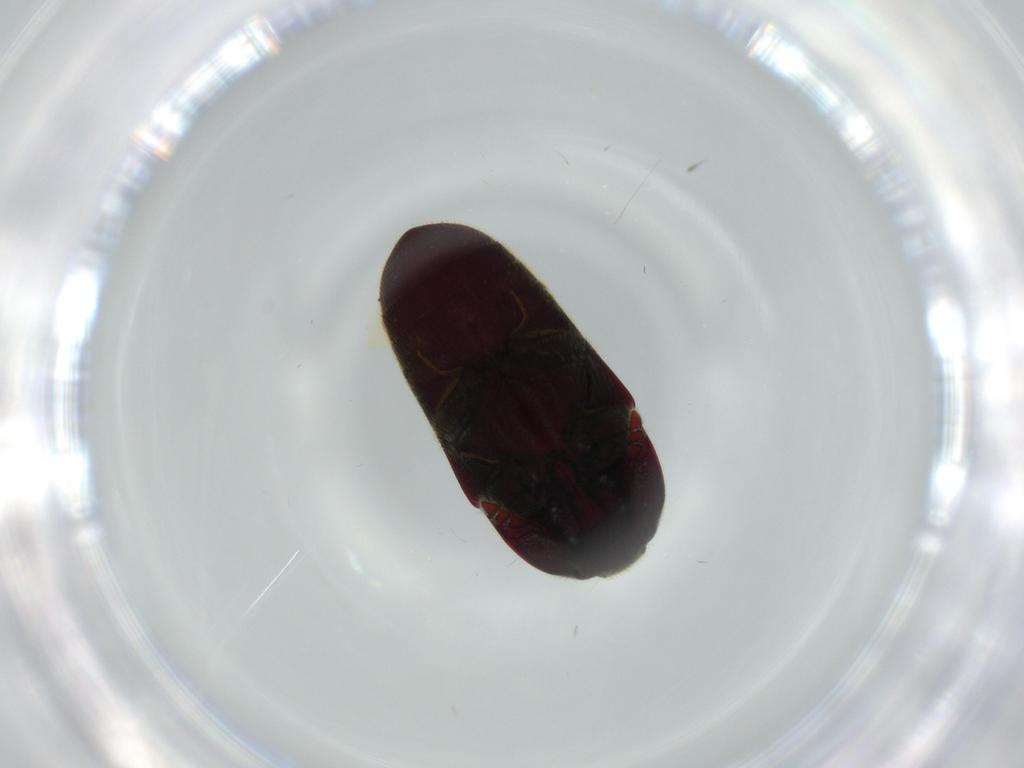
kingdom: Animalia
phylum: Arthropoda
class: Insecta
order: Coleoptera
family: Throscidae
